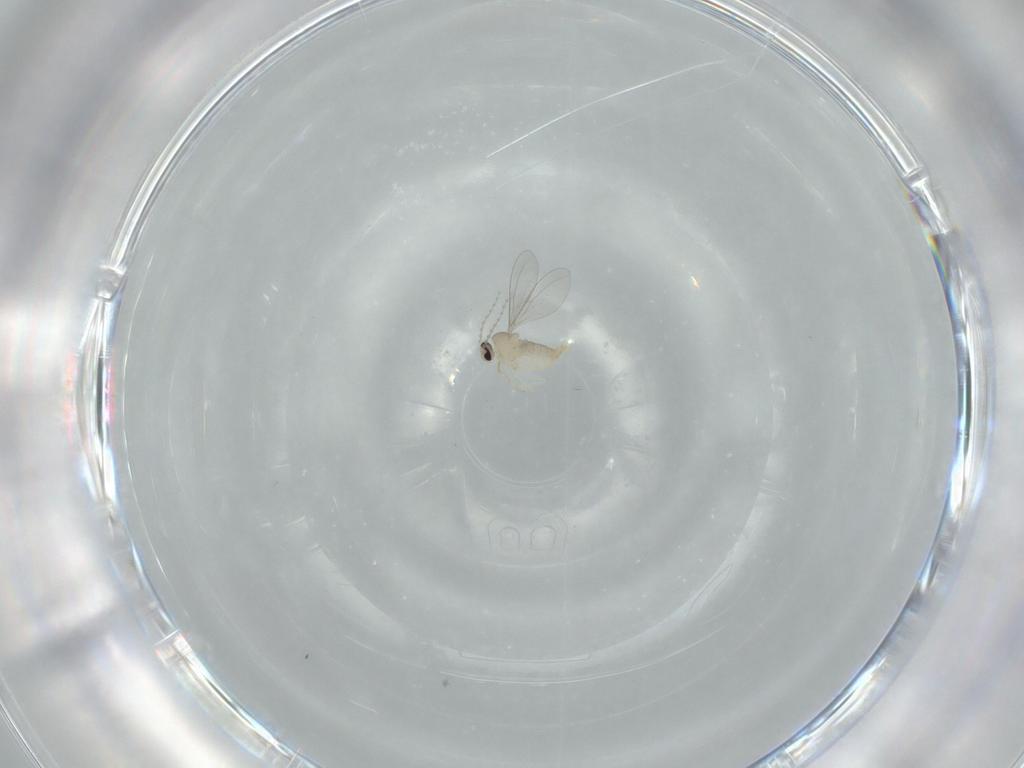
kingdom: Animalia
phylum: Arthropoda
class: Insecta
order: Diptera
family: Cecidomyiidae
